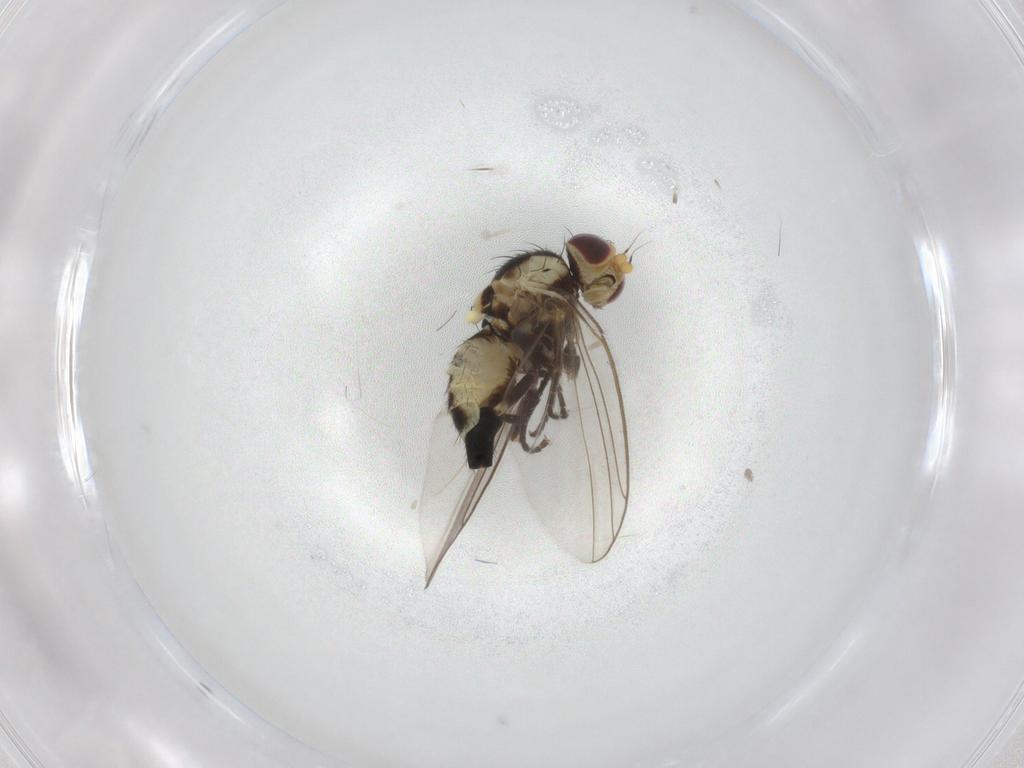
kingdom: Animalia
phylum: Arthropoda
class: Insecta
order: Diptera
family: Agromyzidae
